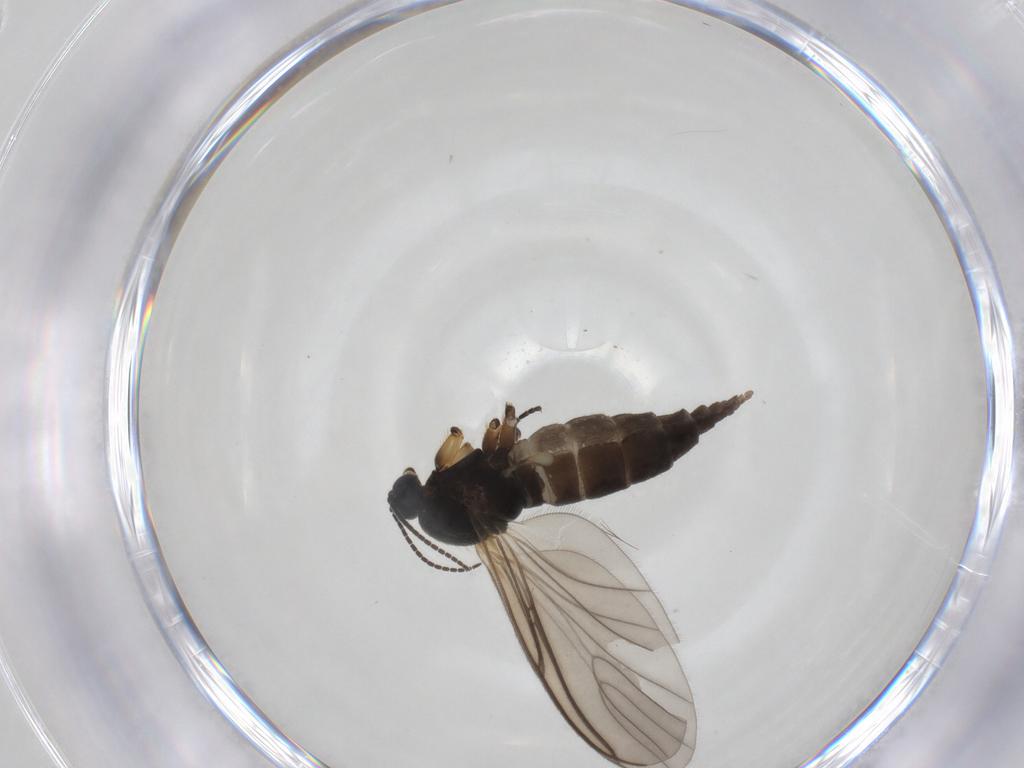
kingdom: Animalia
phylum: Arthropoda
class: Insecta
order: Diptera
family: Sciaridae
